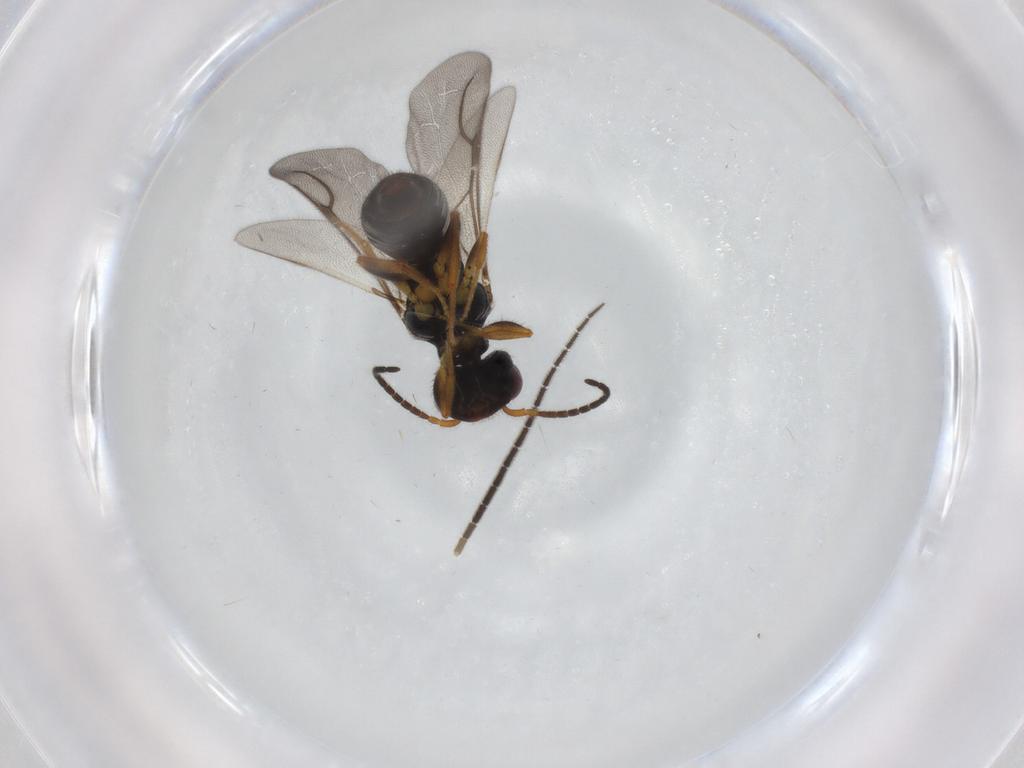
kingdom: Animalia
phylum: Arthropoda
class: Insecta
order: Hymenoptera
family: Bethylidae
